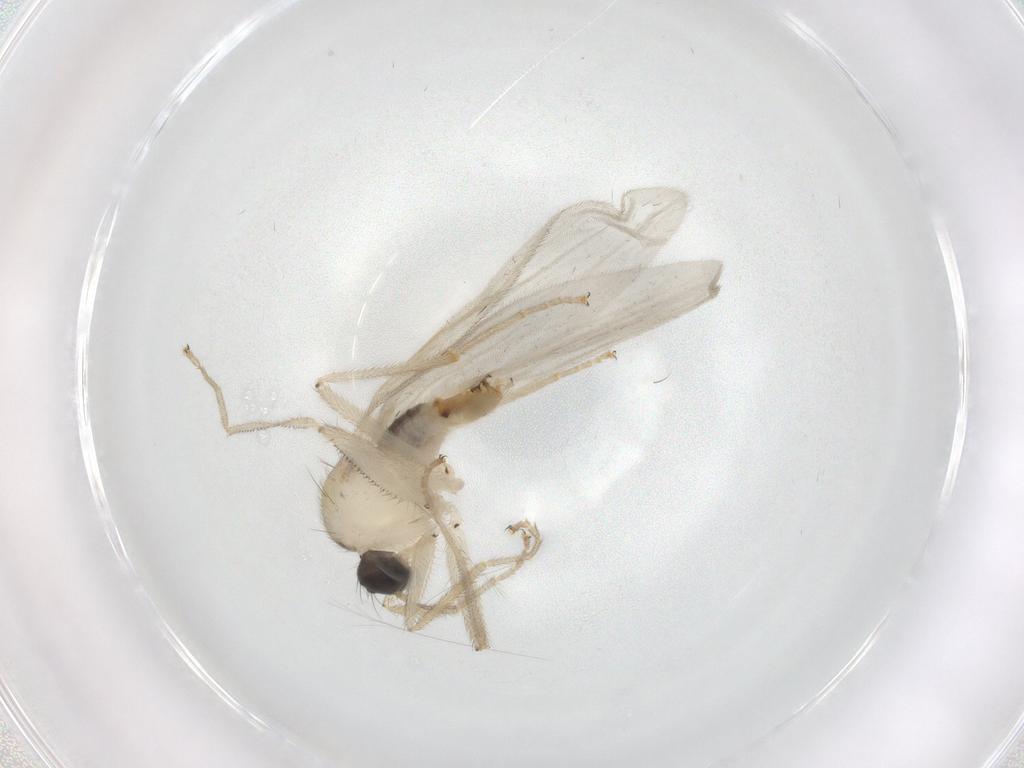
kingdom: Animalia
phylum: Arthropoda
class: Insecta
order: Diptera
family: Hybotidae
